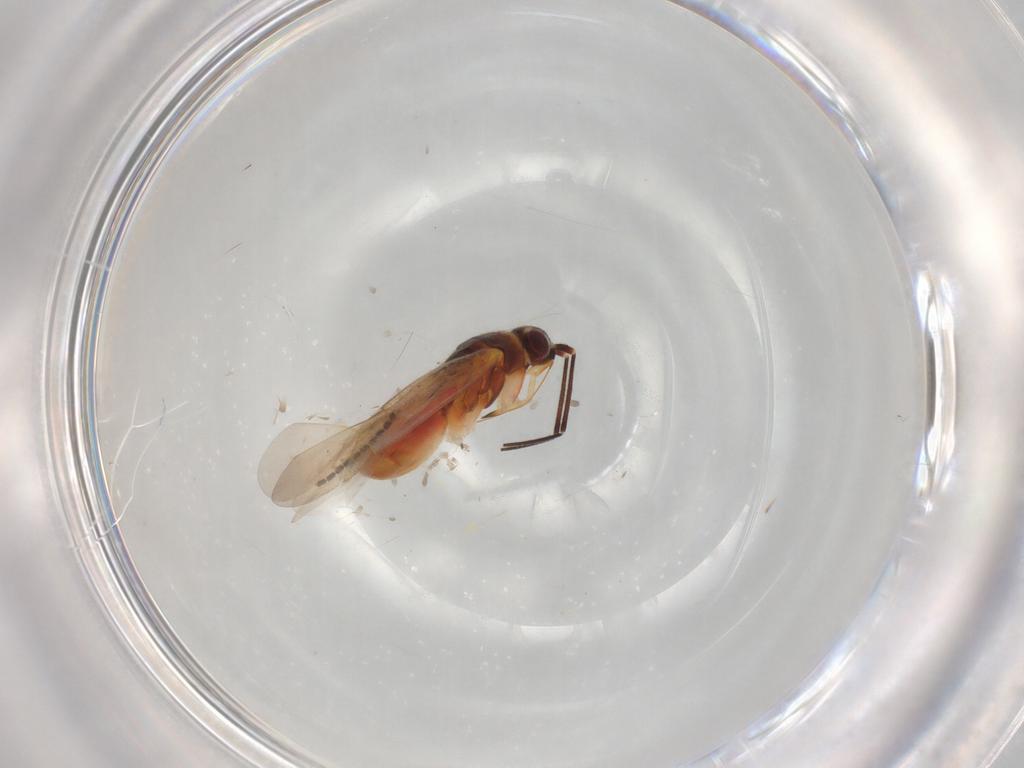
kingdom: Animalia
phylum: Arthropoda
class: Insecta
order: Hemiptera
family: Miridae
